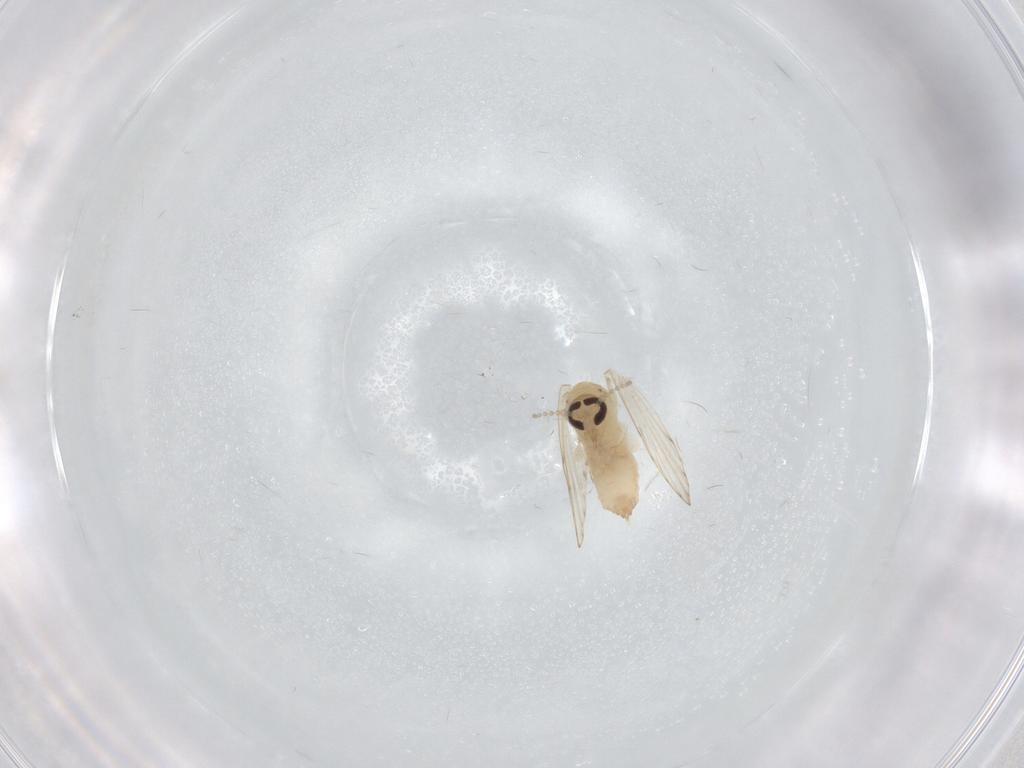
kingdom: Animalia
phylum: Arthropoda
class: Insecta
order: Diptera
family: Psychodidae
